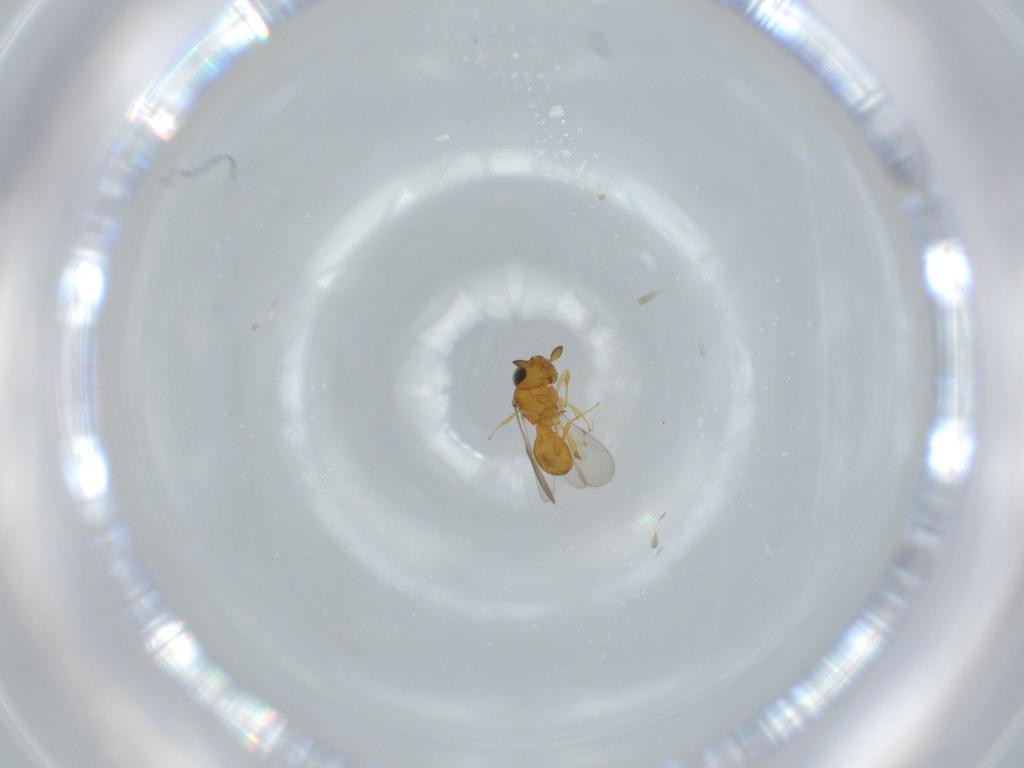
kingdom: Animalia
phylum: Arthropoda
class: Insecta
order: Hymenoptera
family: Scelionidae
